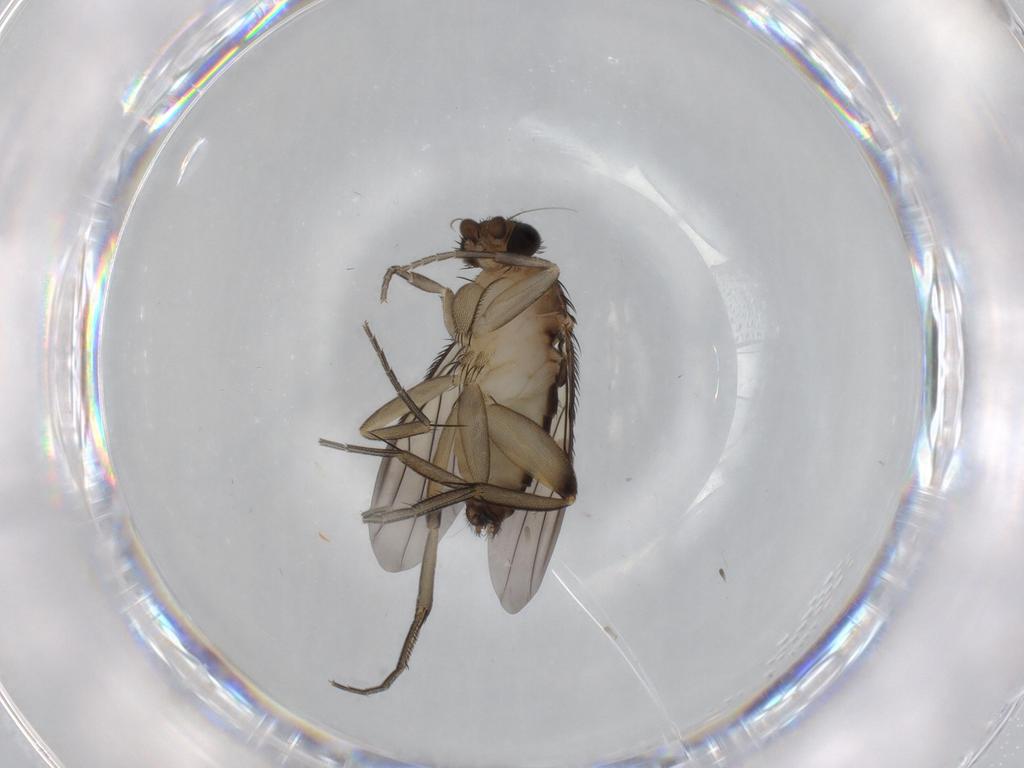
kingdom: Animalia
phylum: Arthropoda
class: Insecta
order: Diptera
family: Phoridae
